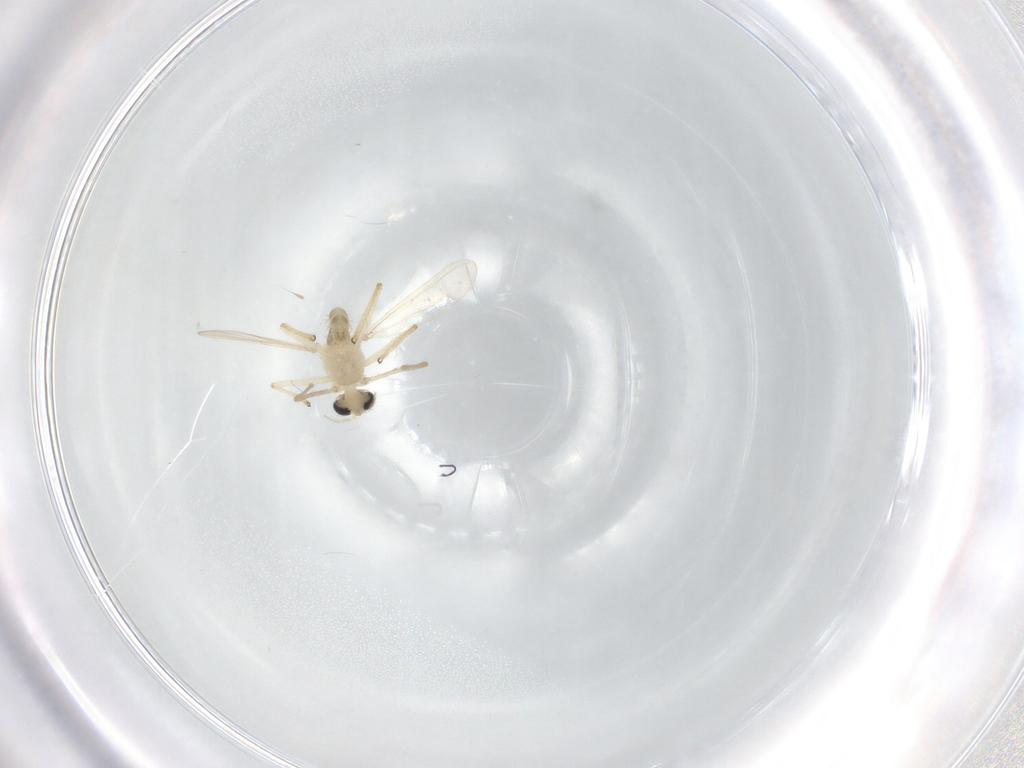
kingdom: Animalia
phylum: Arthropoda
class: Insecta
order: Diptera
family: Chironomidae
